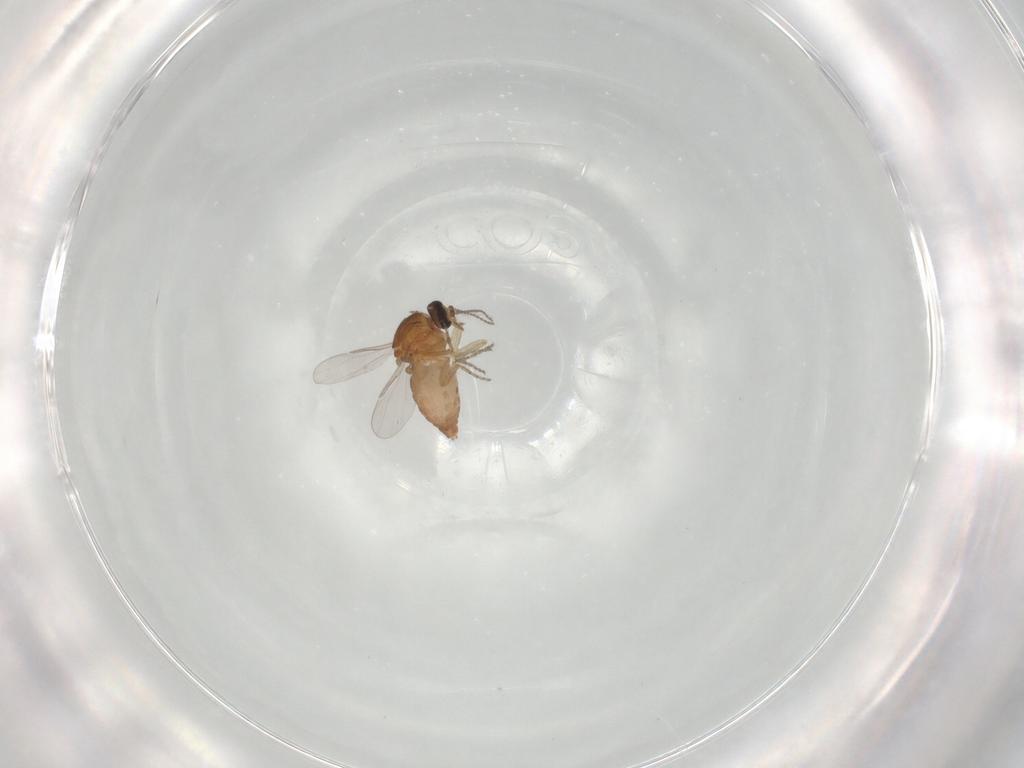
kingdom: Animalia
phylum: Arthropoda
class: Insecta
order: Diptera
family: Ceratopogonidae
